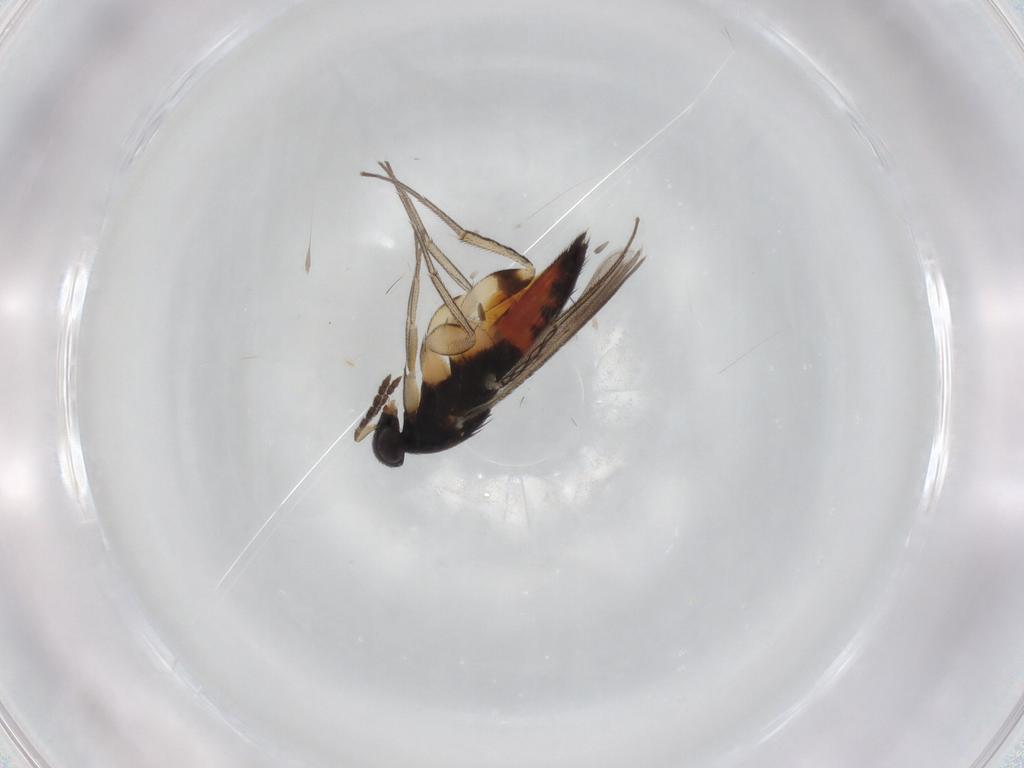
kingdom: Animalia
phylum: Arthropoda
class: Insecta
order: Hymenoptera
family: Eulophidae
